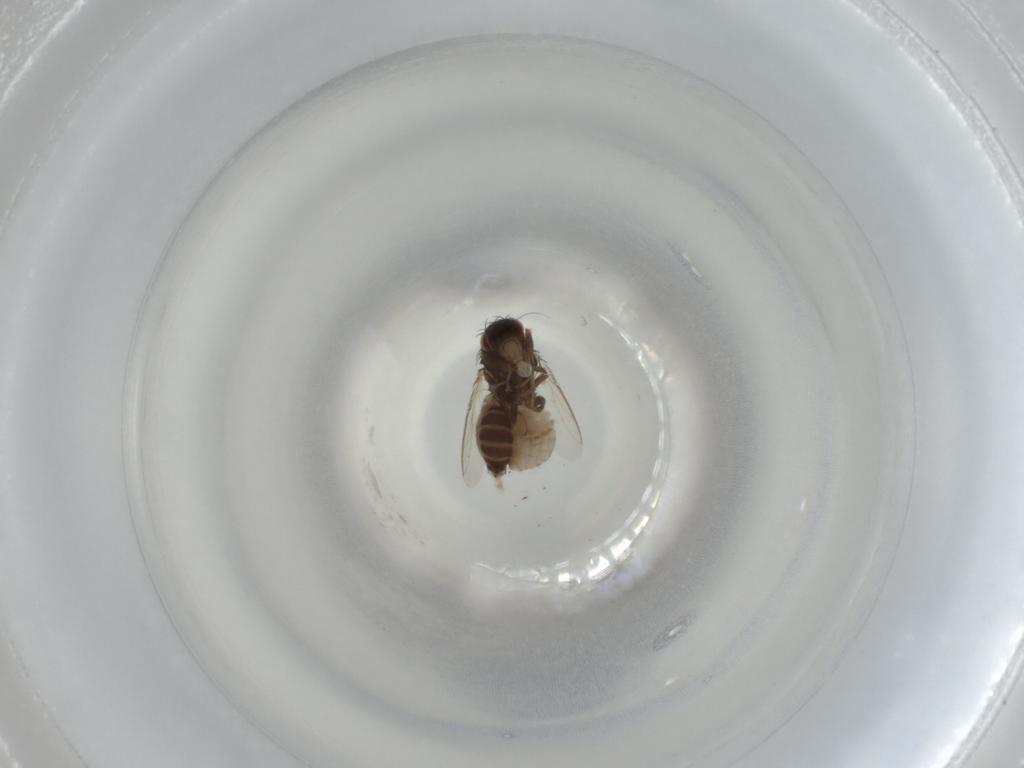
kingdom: Animalia
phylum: Arthropoda
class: Insecta
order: Diptera
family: Sphaeroceridae
